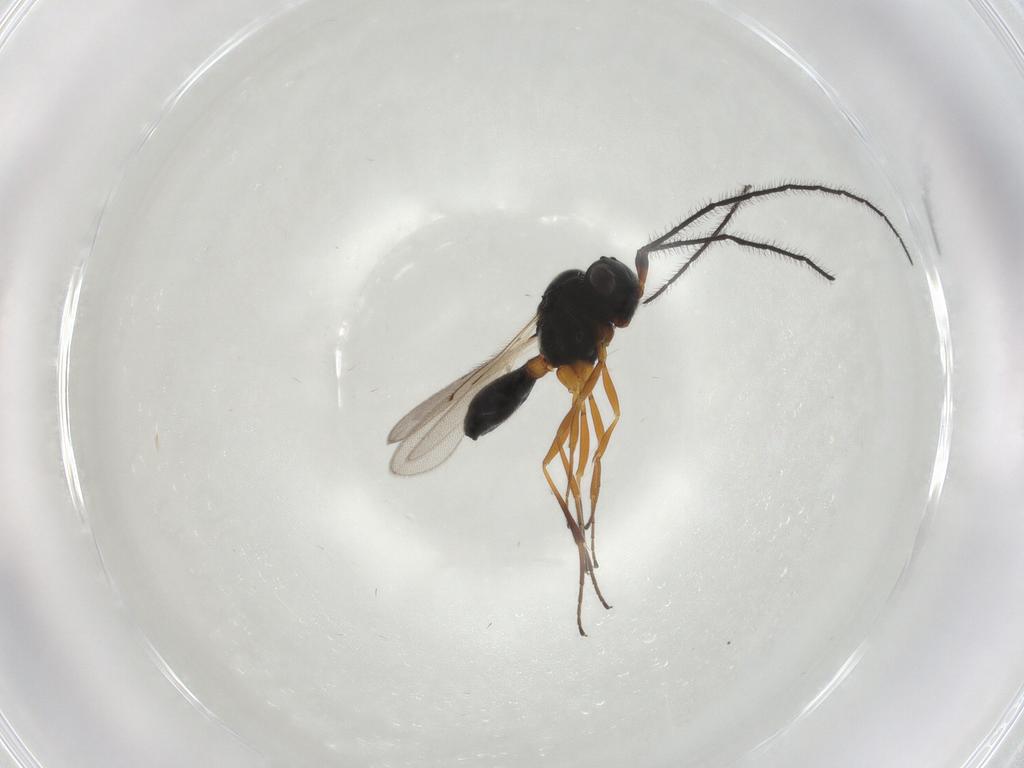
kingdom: Animalia
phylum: Arthropoda
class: Insecta
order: Hymenoptera
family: Scelionidae
